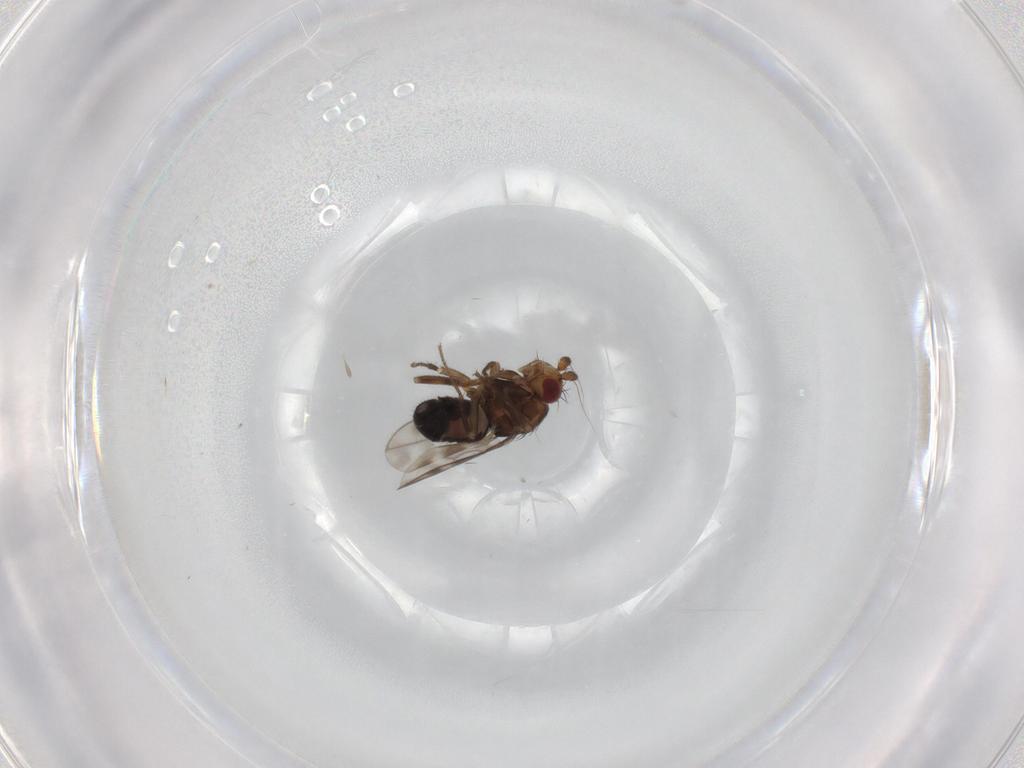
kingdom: Animalia
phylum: Arthropoda
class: Insecta
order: Diptera
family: Sphaeroceridae
